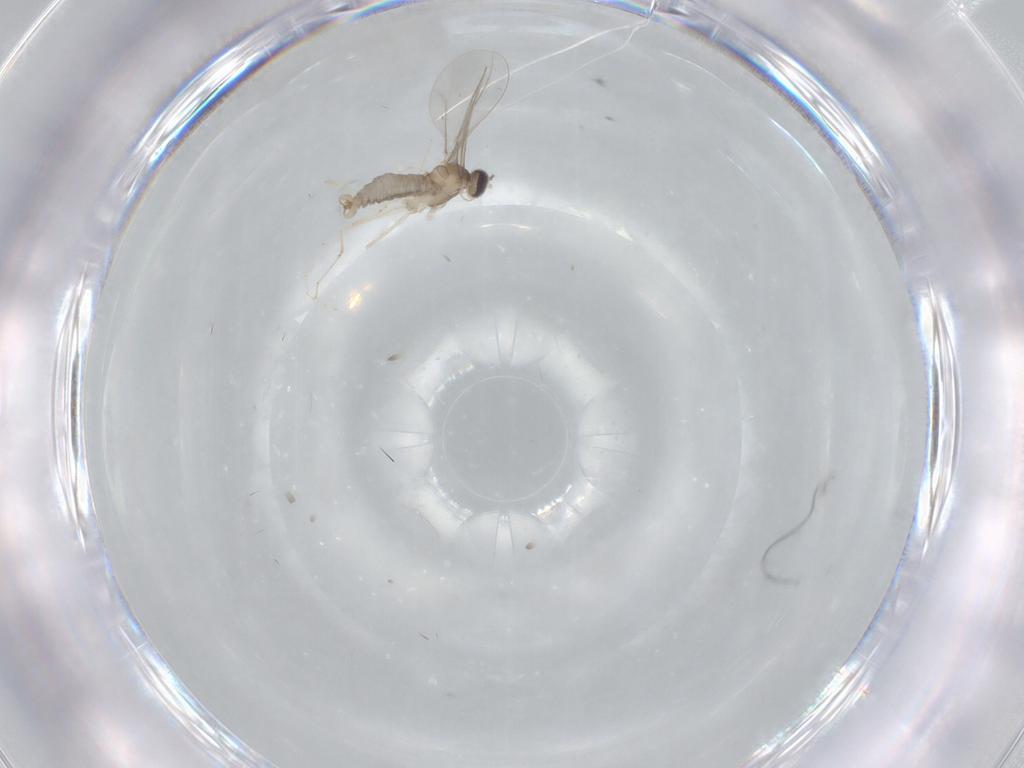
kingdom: Animalia
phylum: Arthropoda
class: Insecta
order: Diptera
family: Cecidomyiidae
